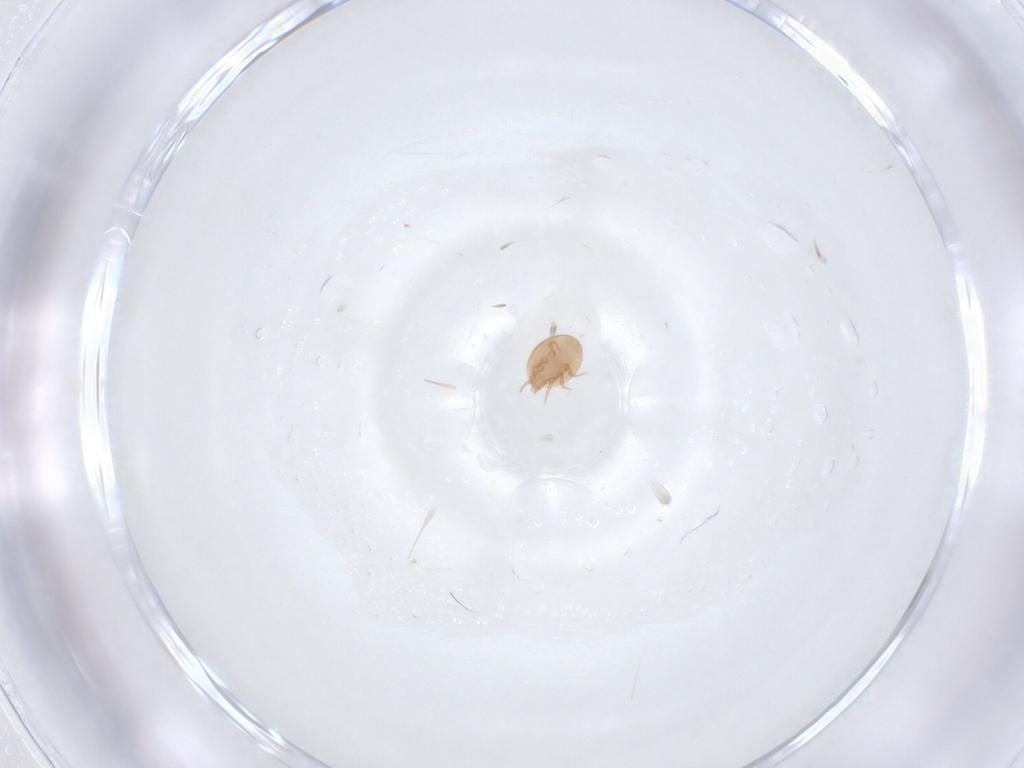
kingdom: Animalia
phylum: Arthropoda
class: Arachnida
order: Mesostigmata
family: Trematuridae
